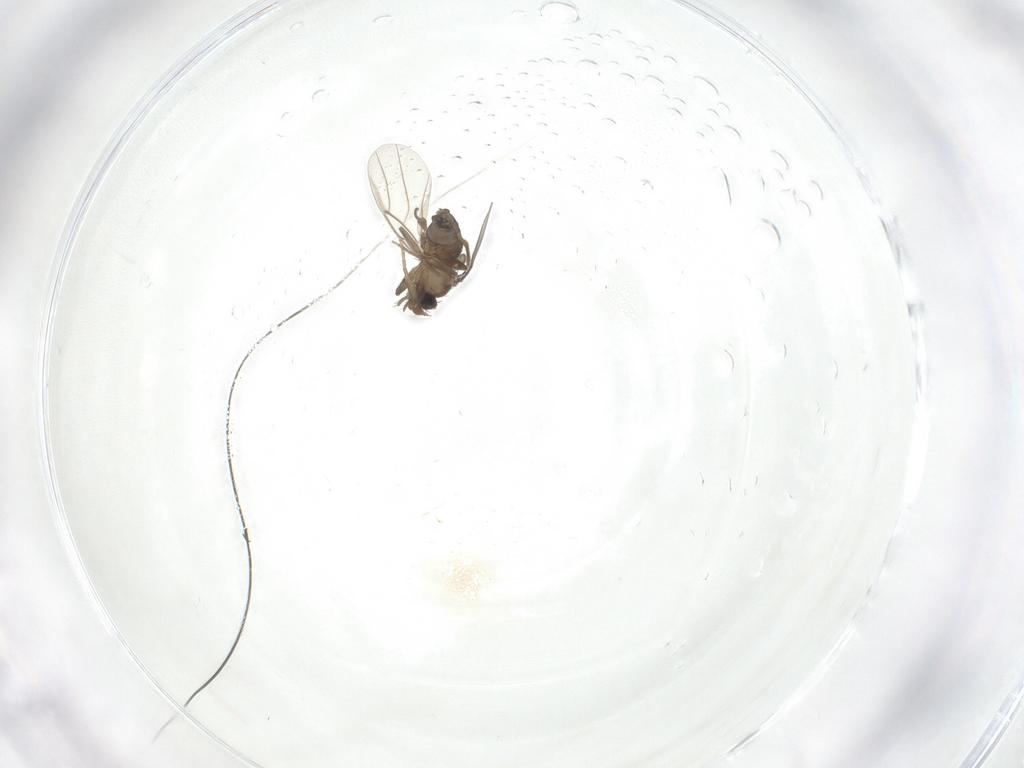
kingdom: Animalia
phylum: Arthropoda
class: Insecta
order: Diptera
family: Phoridae
